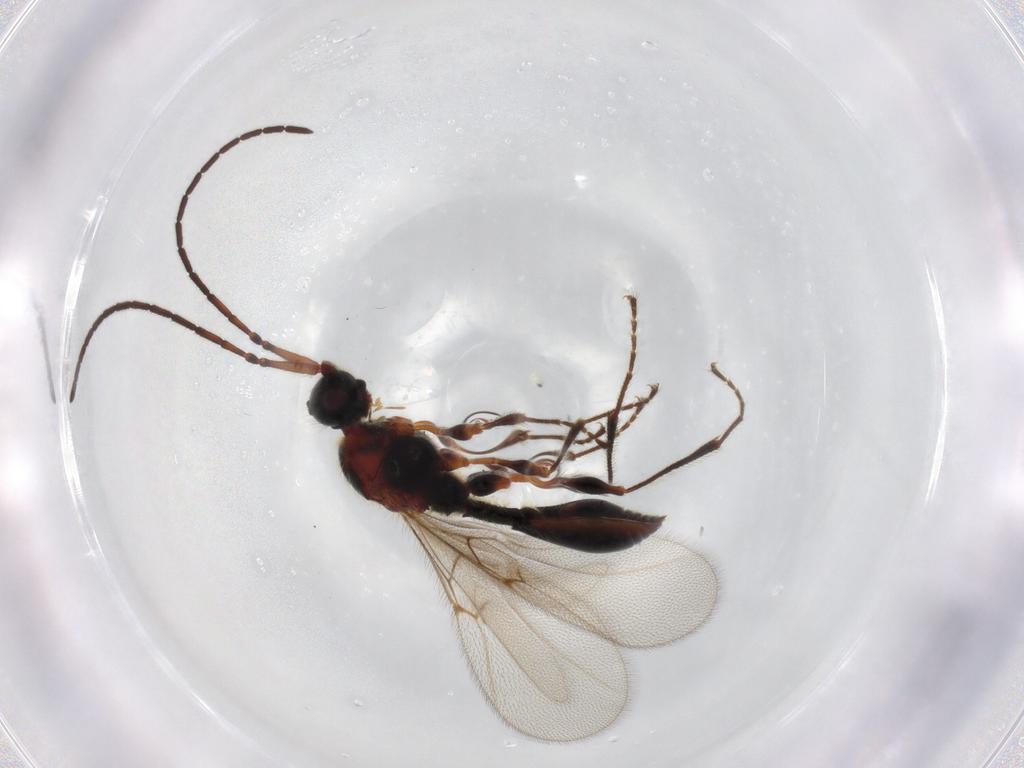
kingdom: Animalia
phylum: Arthropoda
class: Insecta
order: Hymenoptera
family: Diapriidae
